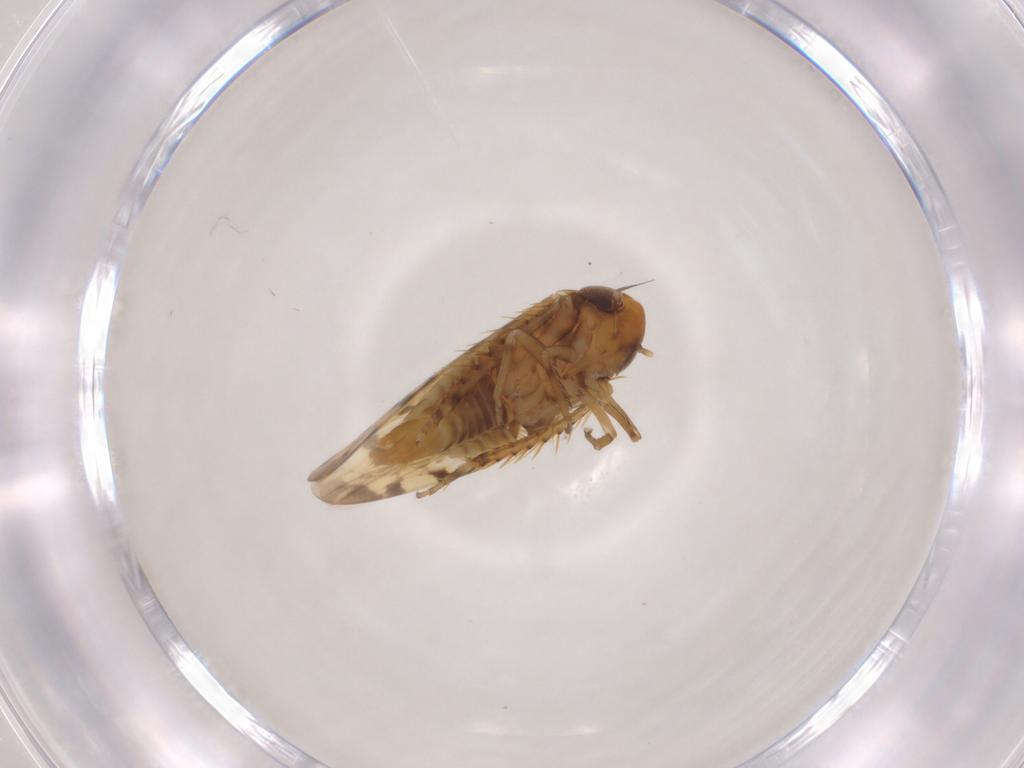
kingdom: Animalia
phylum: Arthropoda
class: Insecta
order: Hemiptera
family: Cicadellidae
